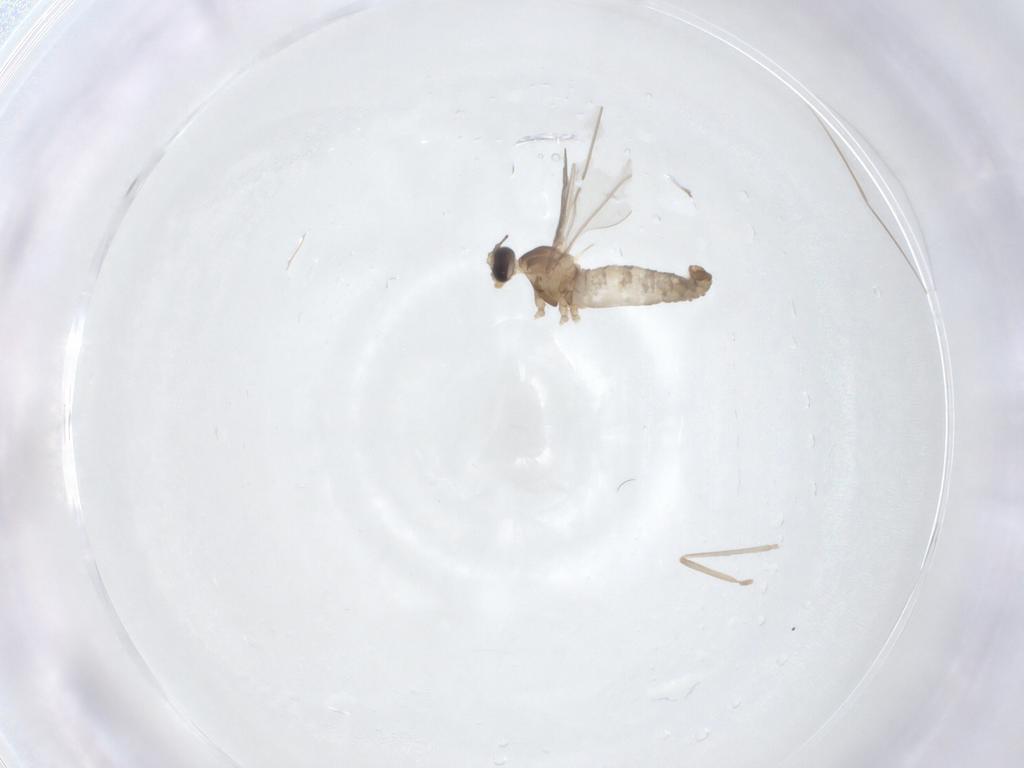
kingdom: Animalia
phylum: Arthropoda
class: Insecta
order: Diptera
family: Cecidomyiidae
